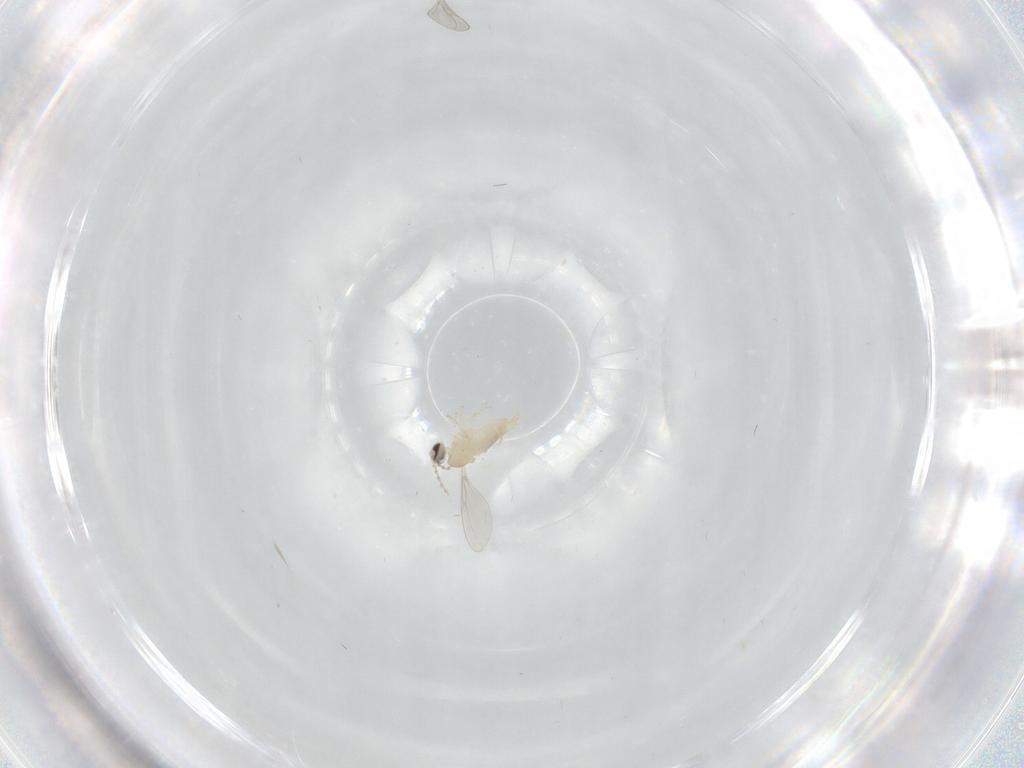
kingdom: Animalia
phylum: Arthropoda
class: Insecta
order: Diptera
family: Cecidomyiidae
